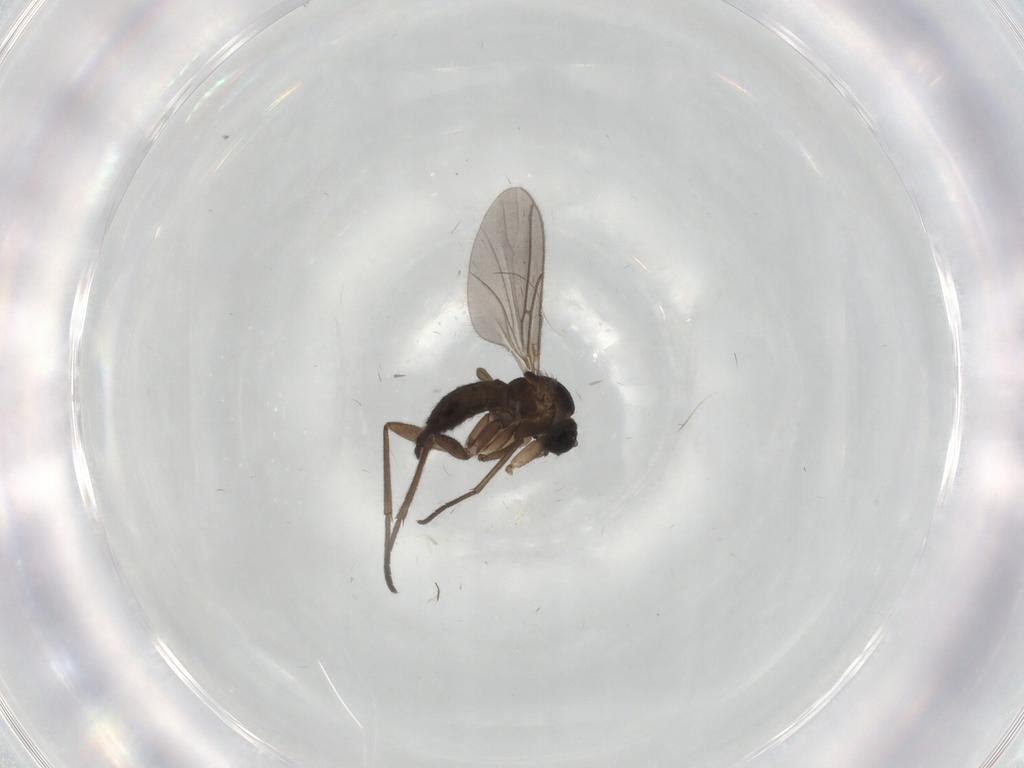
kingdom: Animalia
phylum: Arthropoda
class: Insecta
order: Diptera
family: Sciaridae
